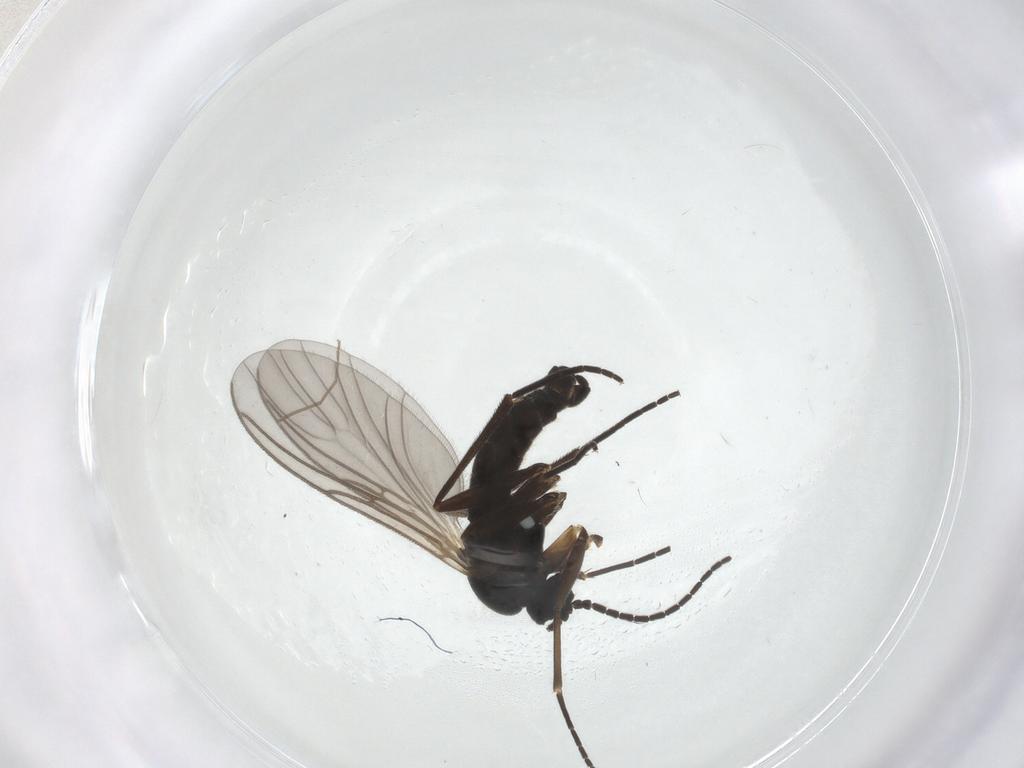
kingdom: Animalia
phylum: Arthropoda
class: Insecta
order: Diptera
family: Sciaridae
